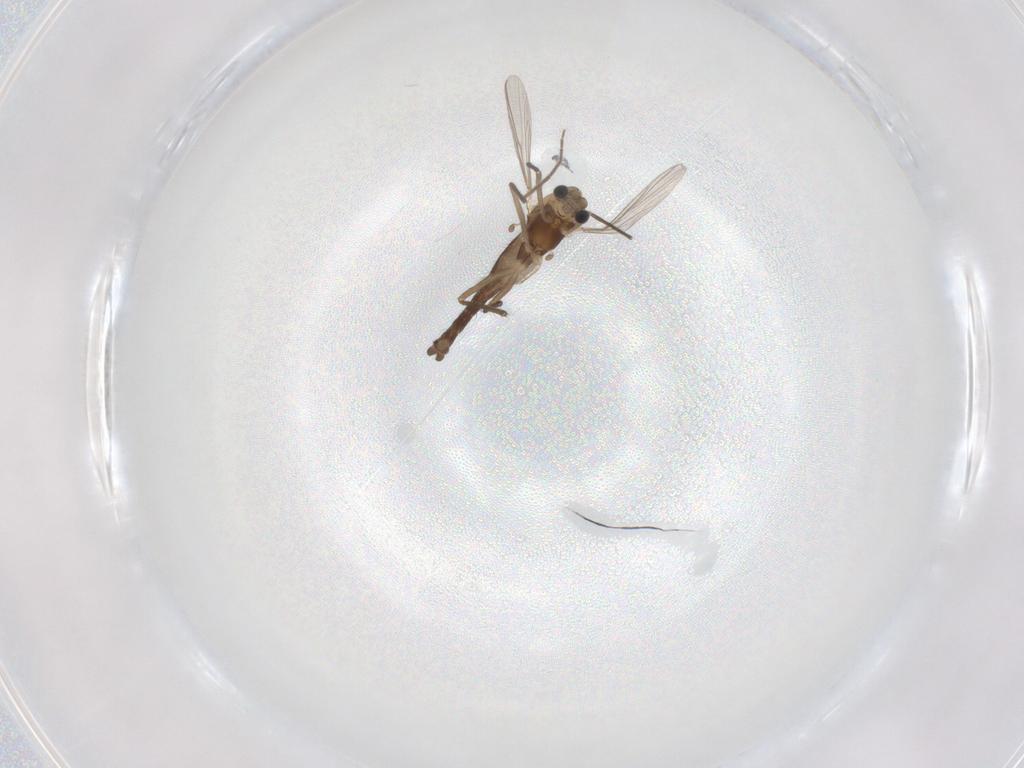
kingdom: Animalia
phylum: Arthropoda
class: Insecta
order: Diptera
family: Chironomidae
